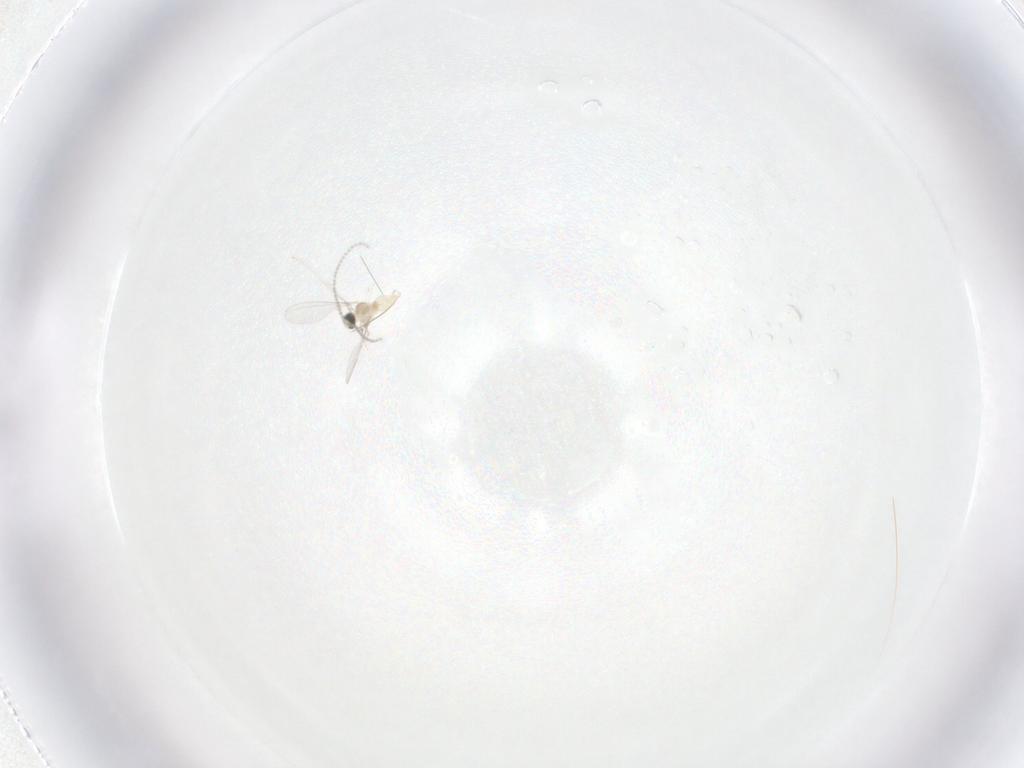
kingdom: Animalia
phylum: Arthropoda
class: Insecta
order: Diptera
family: Cecidomyiidae
